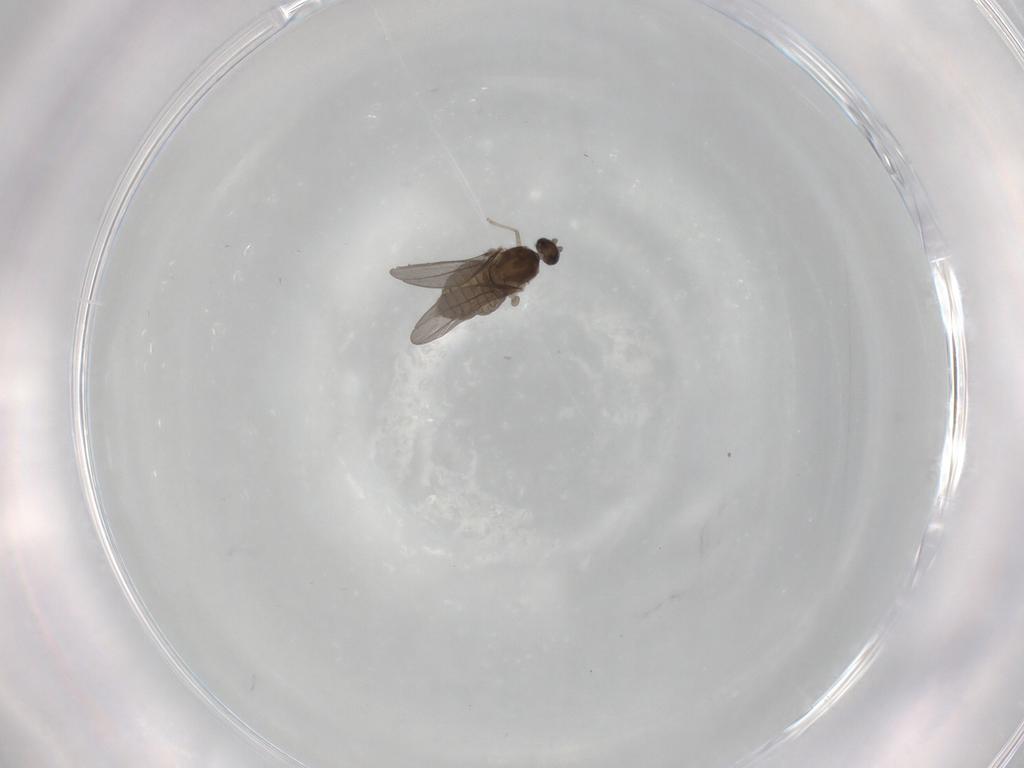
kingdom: Animalia
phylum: Arthropoda
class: Insecta
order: Diptera
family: Cecidomyiidae
